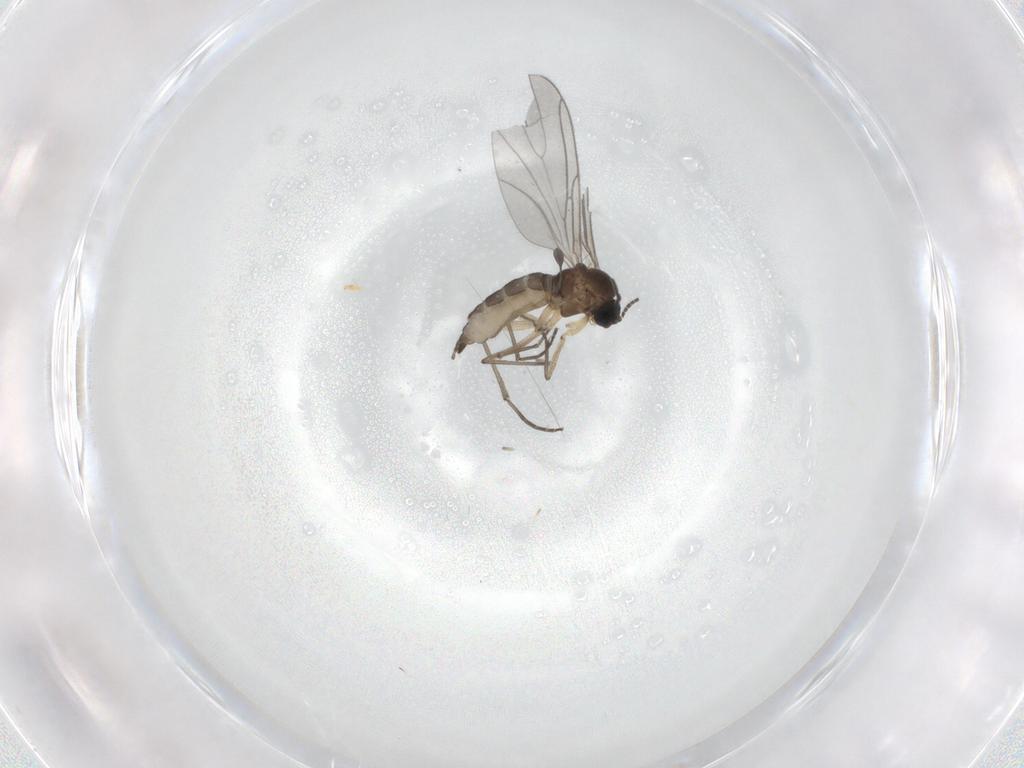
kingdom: Animalia
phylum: Arthropoda
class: Insecta
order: Diptera
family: Sciaridae
